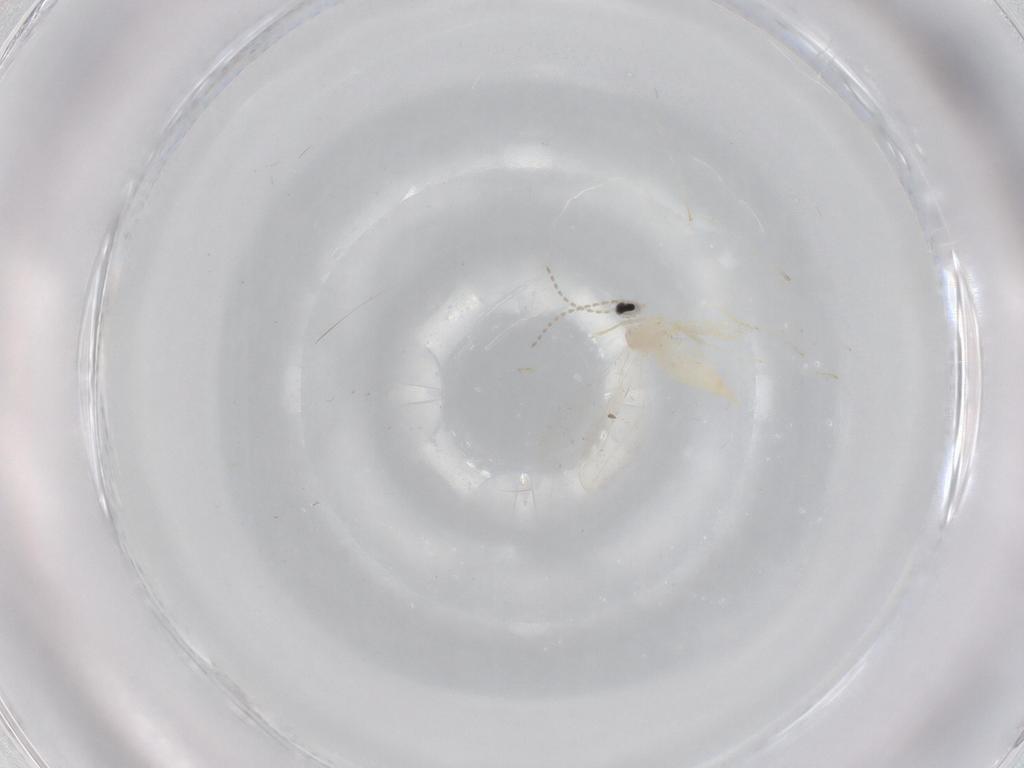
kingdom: Animalia
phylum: Arthropoda
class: Insecta
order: Diptera
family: Cecidomyiidae
